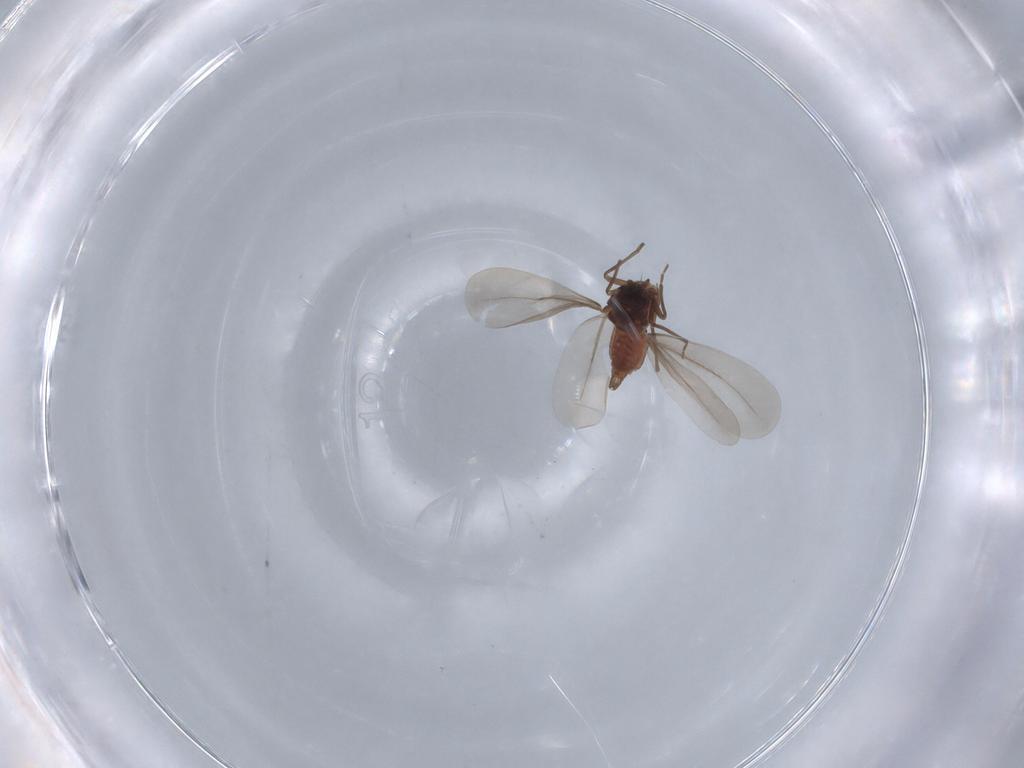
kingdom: Animalia
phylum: Arthropoda
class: Insecta
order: Hemiptera
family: Aleyrodidae
